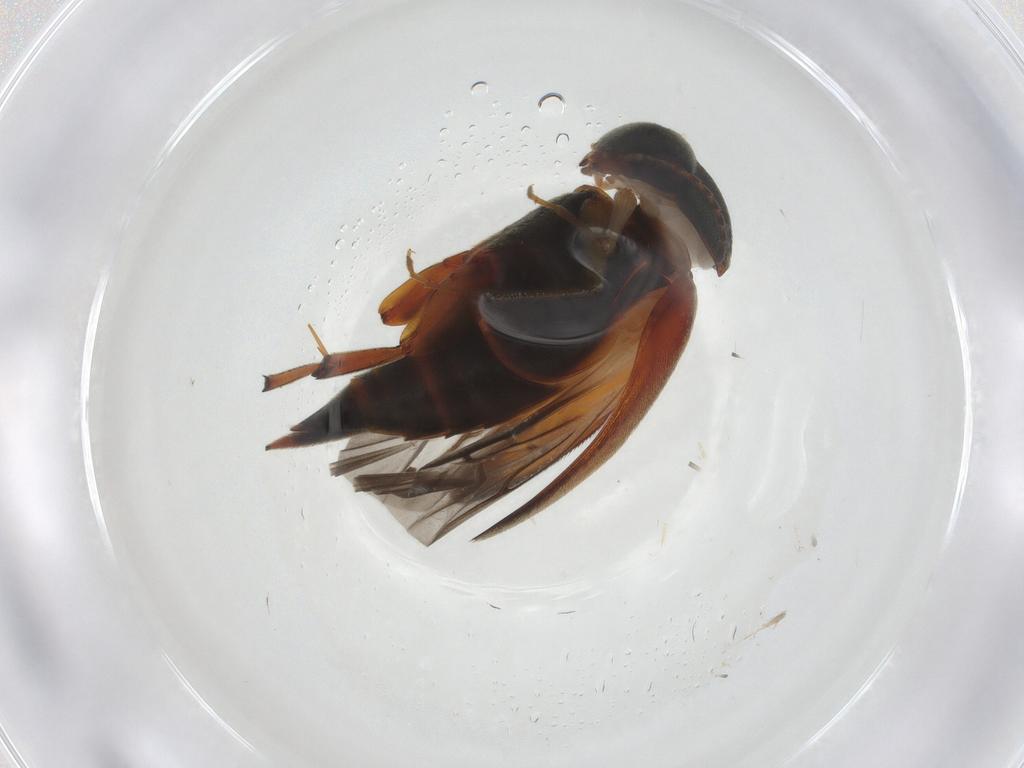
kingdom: Animalia
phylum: Arthropoda
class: Insecta
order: Coleoptera
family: Mordellidae
